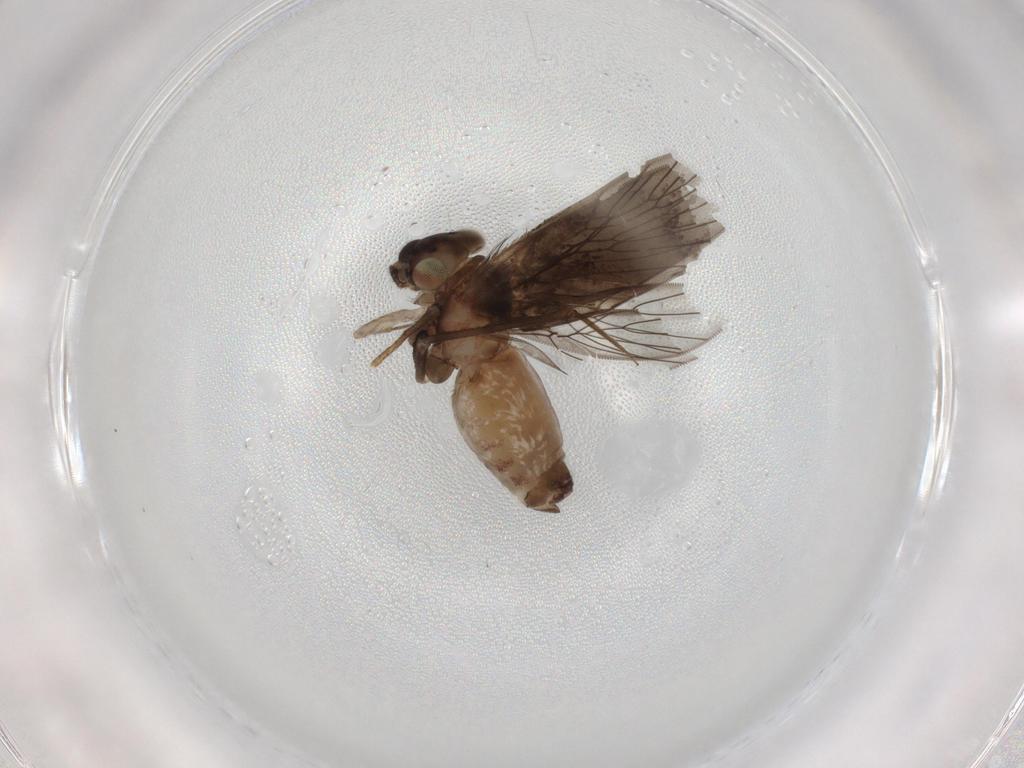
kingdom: Animalia
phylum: Arthropoda
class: Insecta
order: Psocodea
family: Lepidopsocidae
